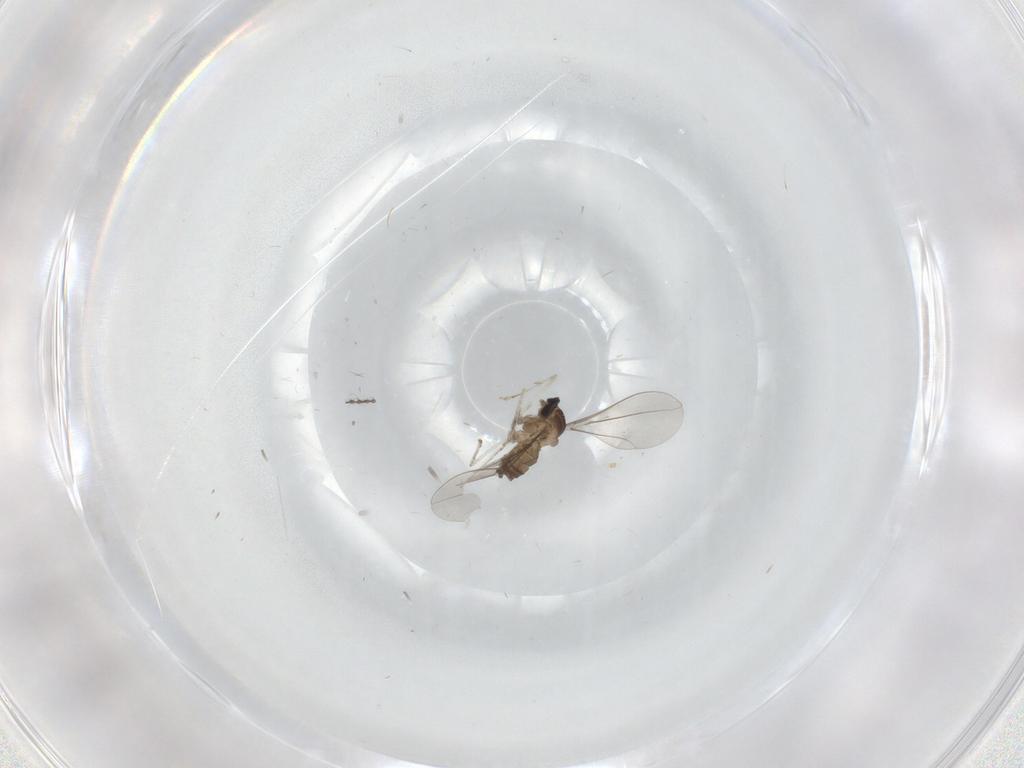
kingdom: Animalia
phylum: Arthropoda
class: Insecta
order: Diptera
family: Cecidomyiidae
